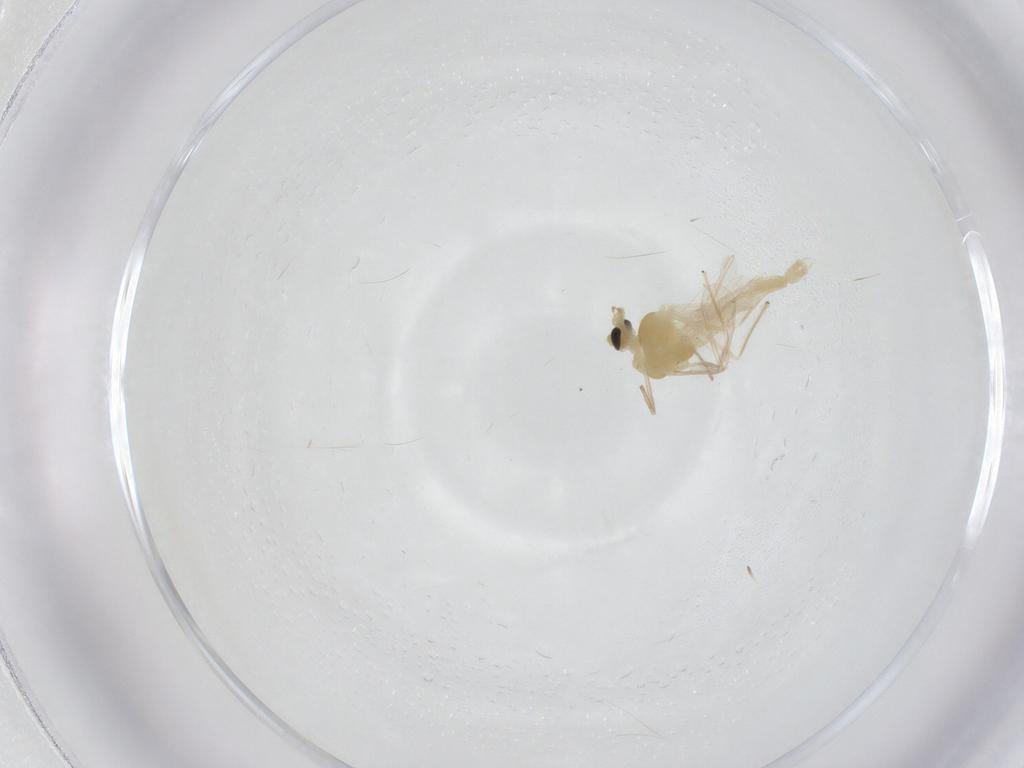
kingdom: Animalia
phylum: Arthropoda
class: Insecta
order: Diptera
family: Chironomidae
